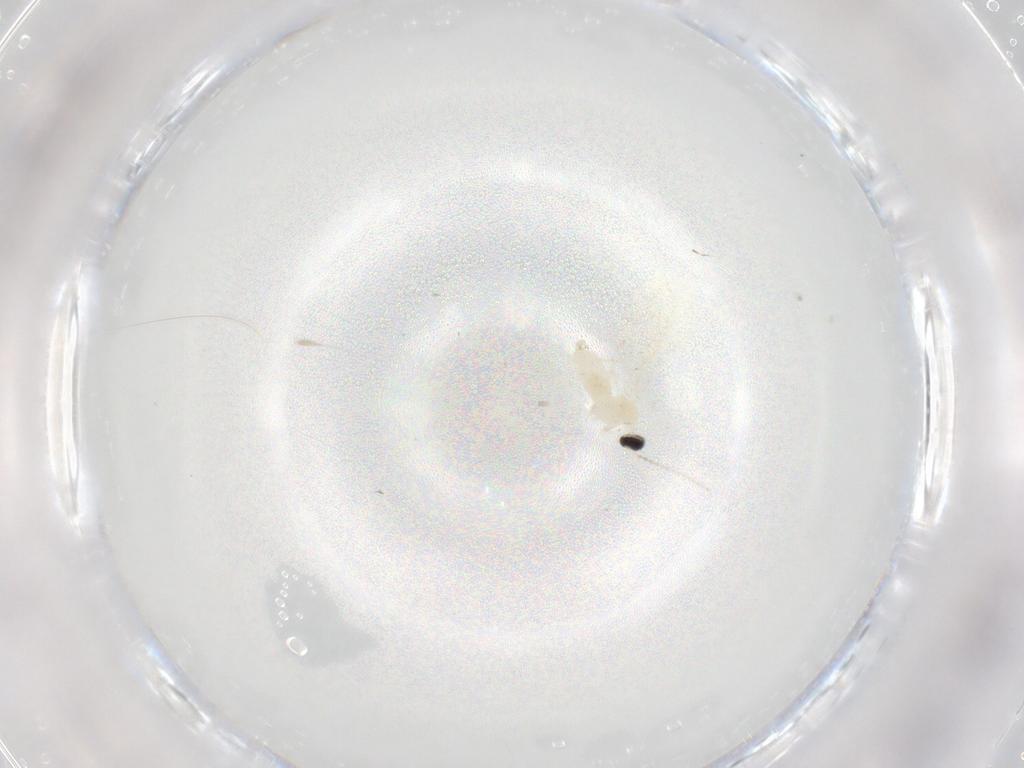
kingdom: Animalia
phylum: Arthropoda
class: Insecta
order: Diptera
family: Cecidomyiidae
